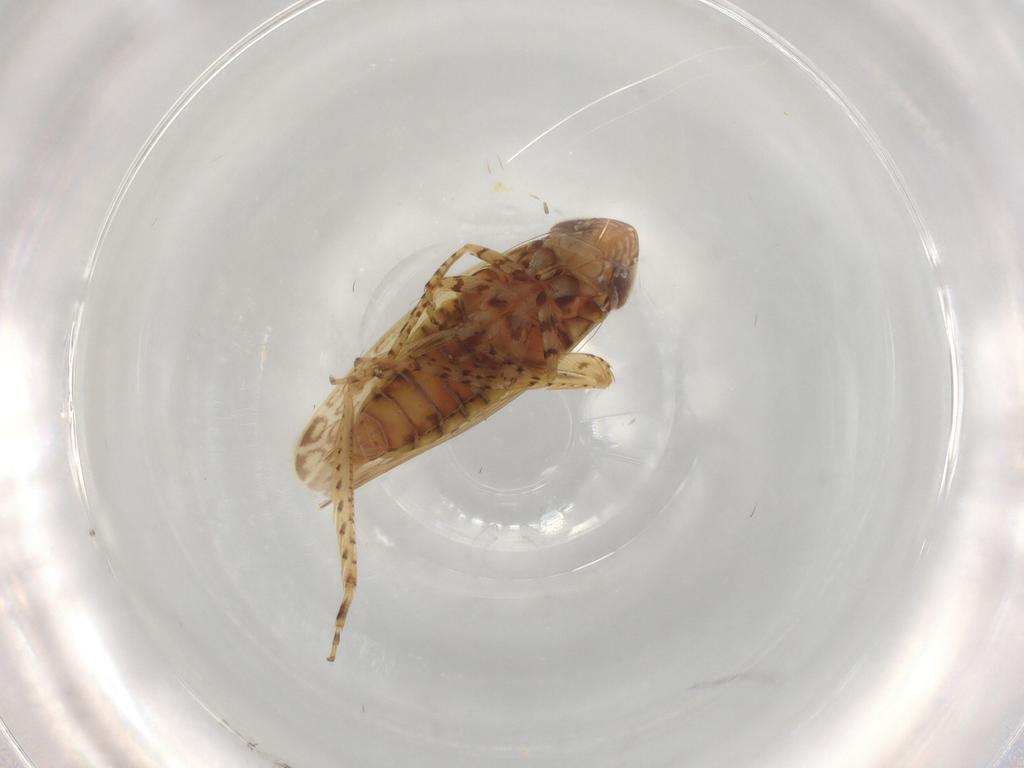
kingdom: Animalia
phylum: Arthropoda
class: Insecta
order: Hemiptera
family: Cicadellidae
